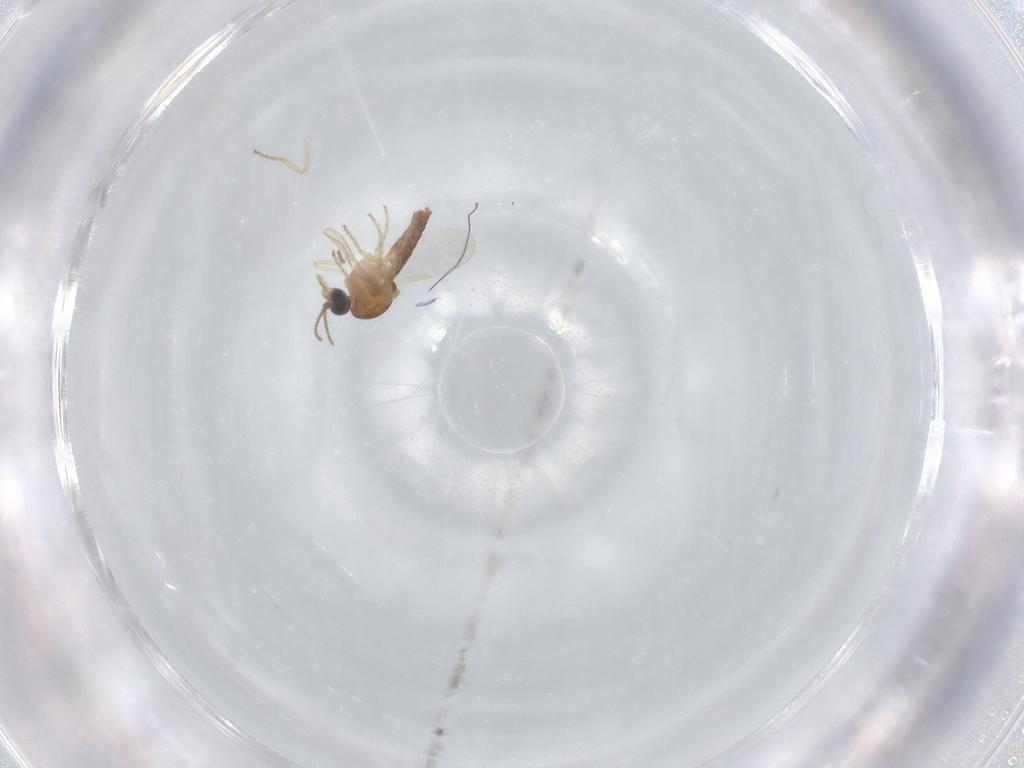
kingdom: Animalia
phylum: Arthropoda
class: Insecta
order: Diptera
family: Ceratopogonidae
